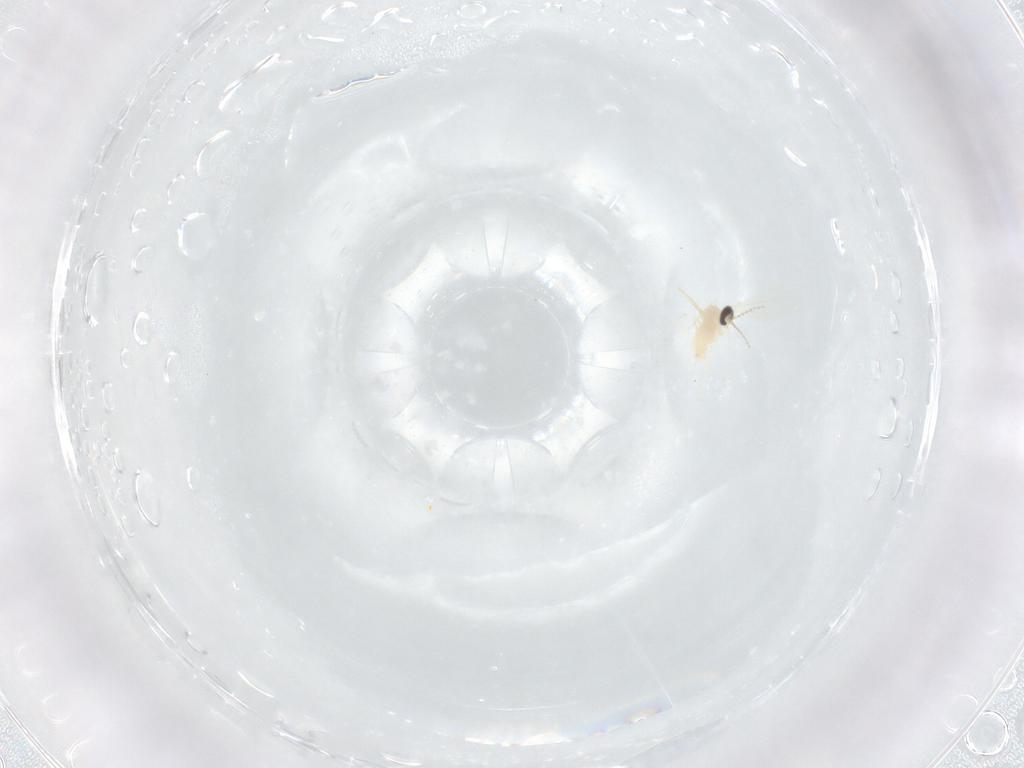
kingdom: Animalia
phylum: Arthropoda
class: Insecta
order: Diptera
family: Cecidomyiidae
